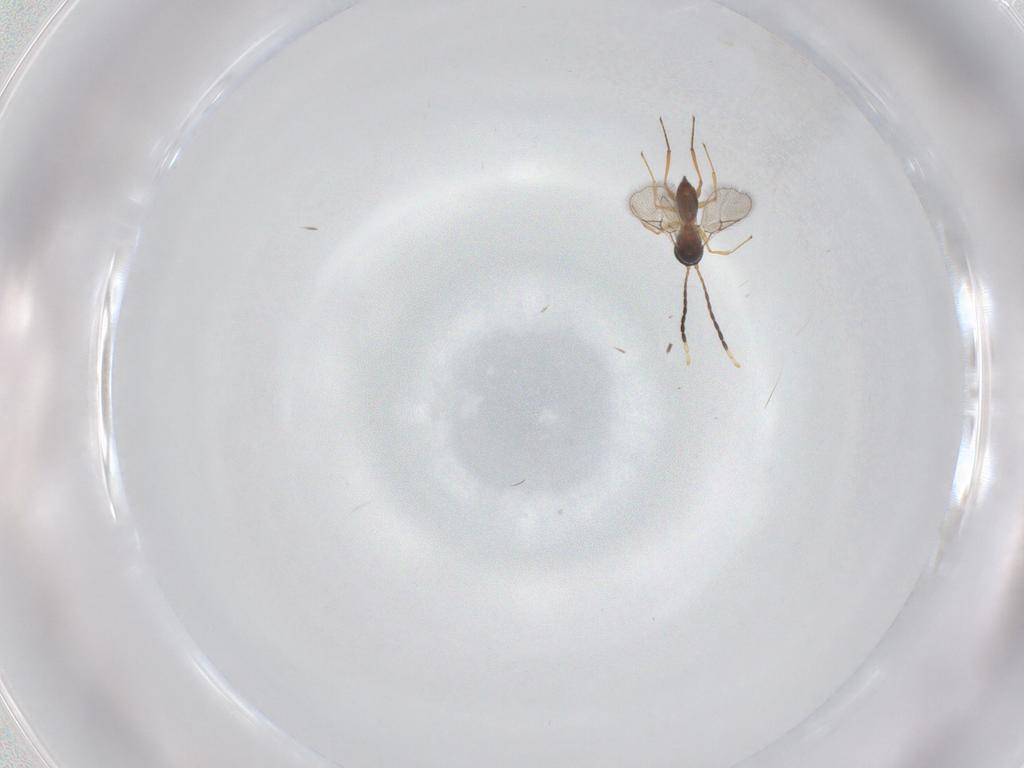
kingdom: Animalia
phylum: Arthropoda
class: Insecta
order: Hymenoptera
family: Figitidae
